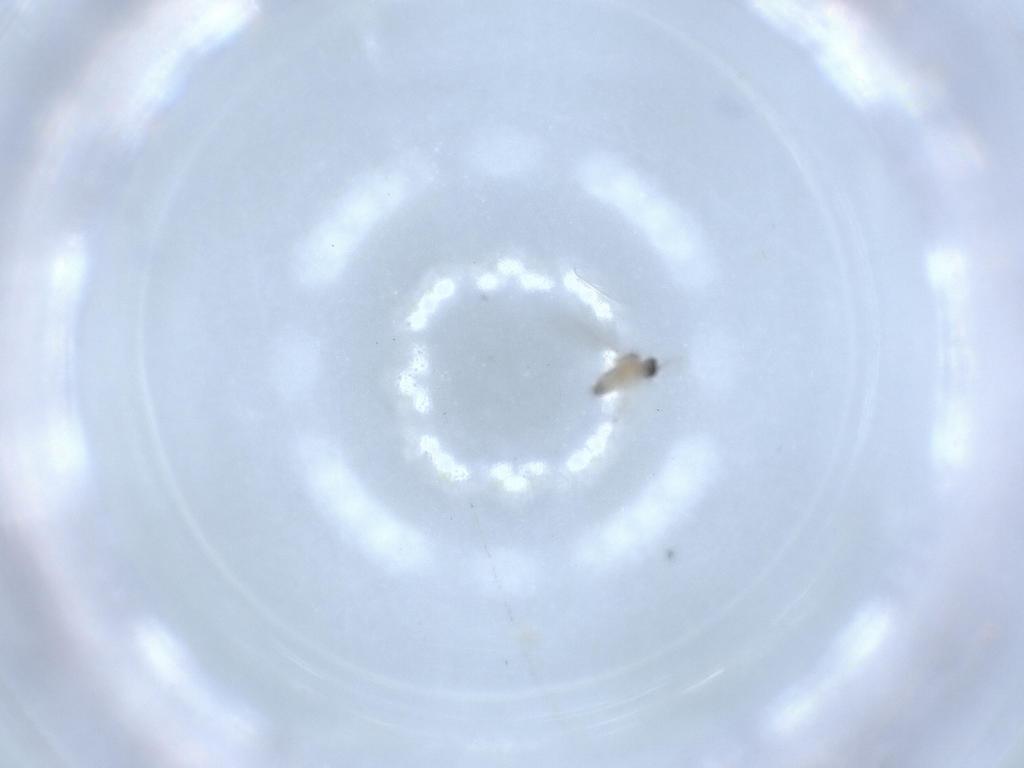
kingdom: Animalia
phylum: Arthropoda
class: Insecta
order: Diptera
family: Cecidomyiidae
